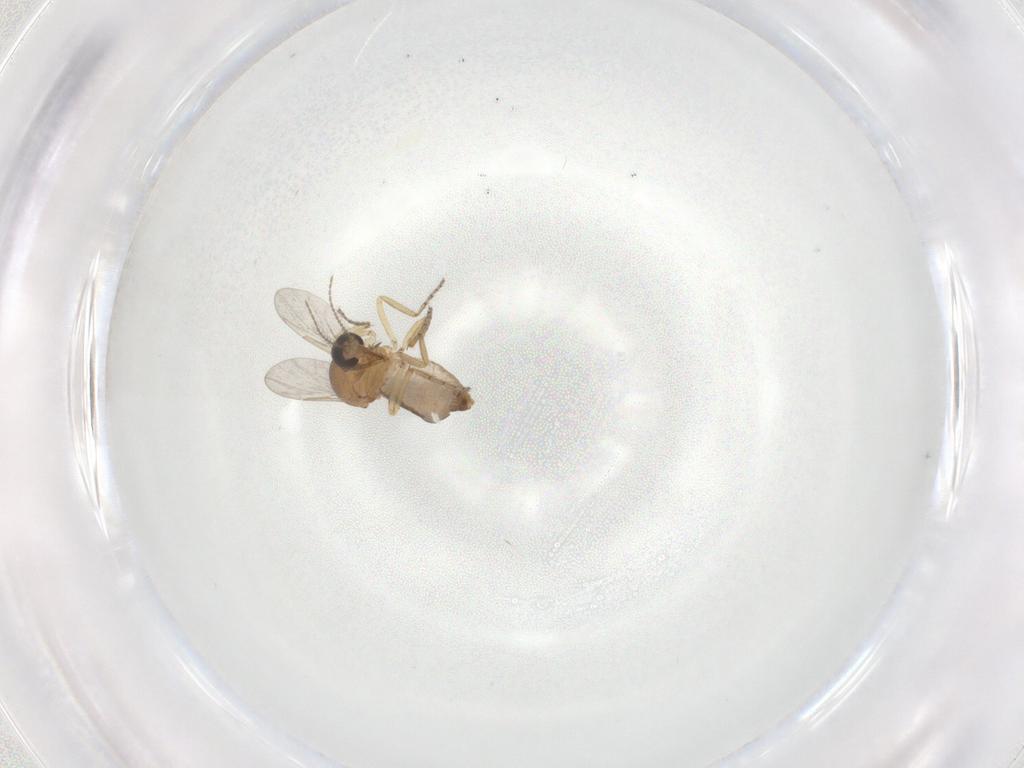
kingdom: Animalia
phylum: Arthropoda
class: Insecta
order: Diptera
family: Ceratopogonidae
